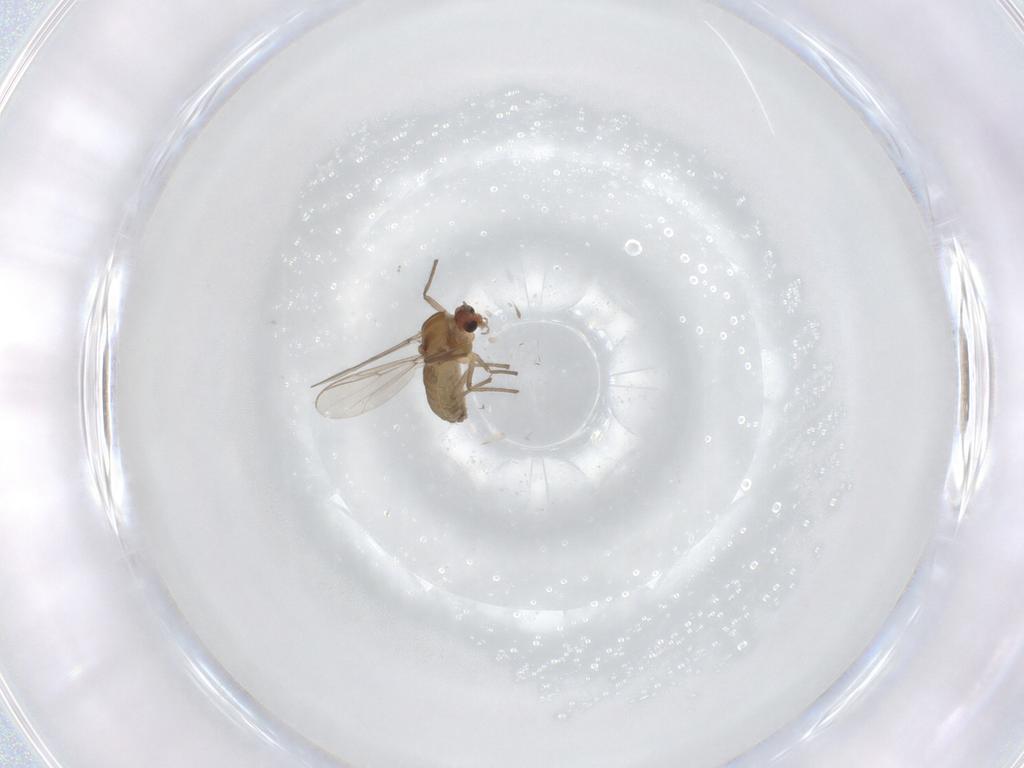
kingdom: Animalia
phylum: Arthropoda
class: Insecta
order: Diptera
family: Chironomidae
